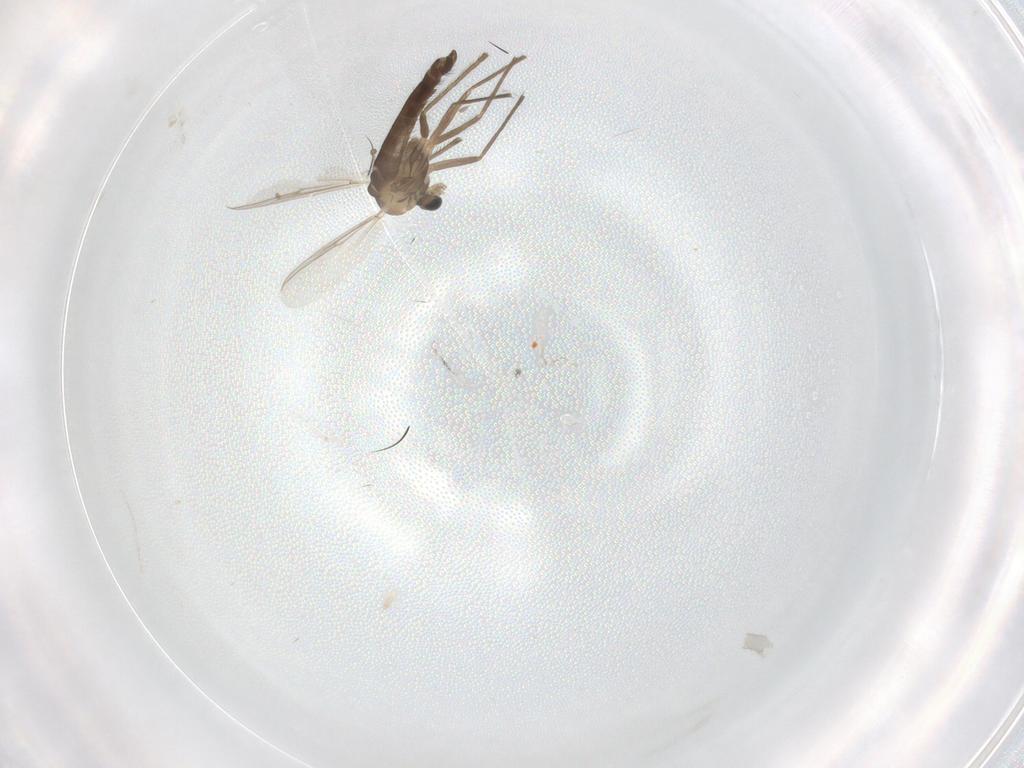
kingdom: Animalia
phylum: Arthropoda
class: Insecta
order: Diptera
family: Chironomidae
